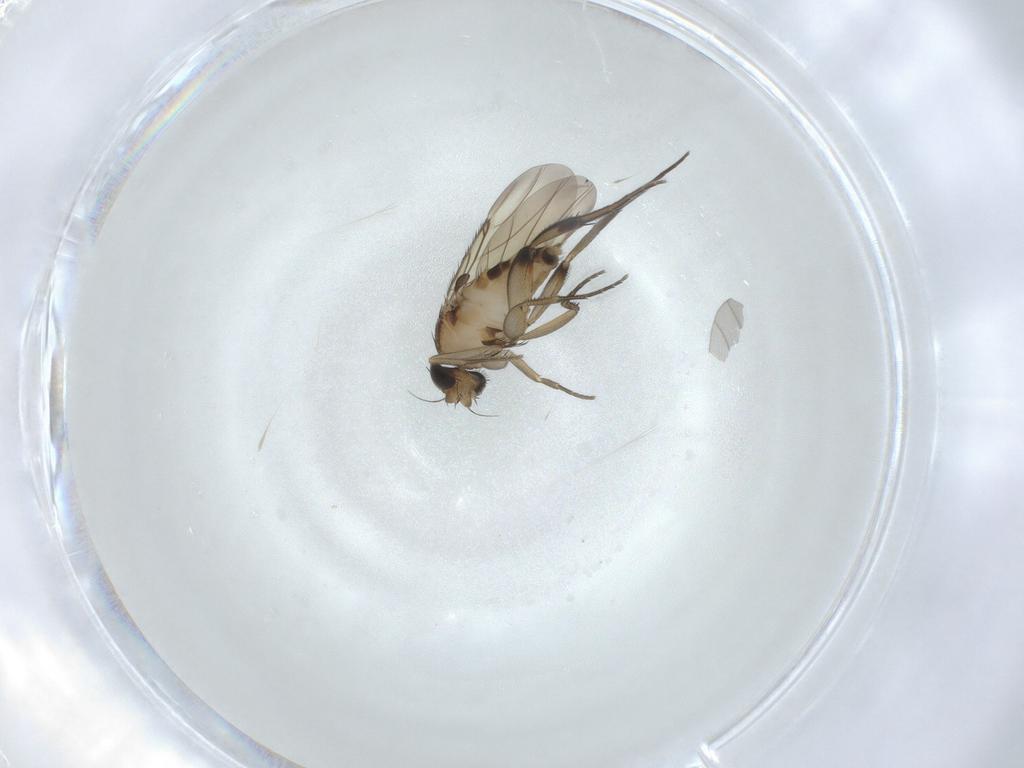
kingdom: Animalia
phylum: Arthropoda
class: Insecta
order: Diptera
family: Phoridae
